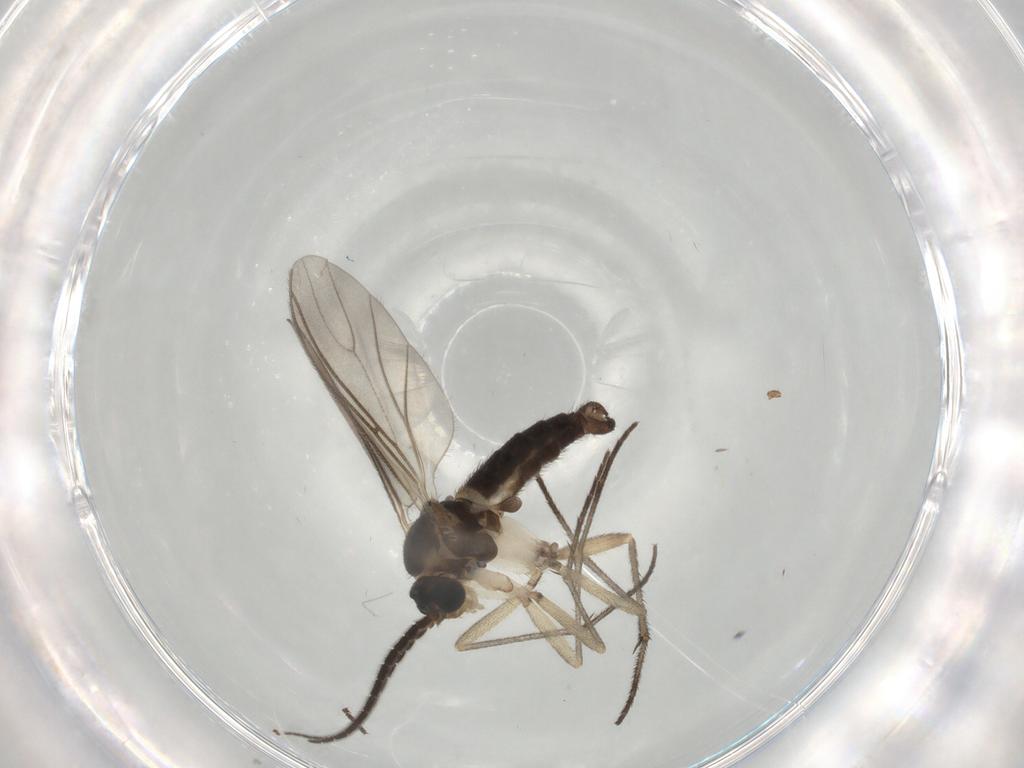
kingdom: Animalia
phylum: Arthropoda
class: Insecta
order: Diptera
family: Sciaridae
